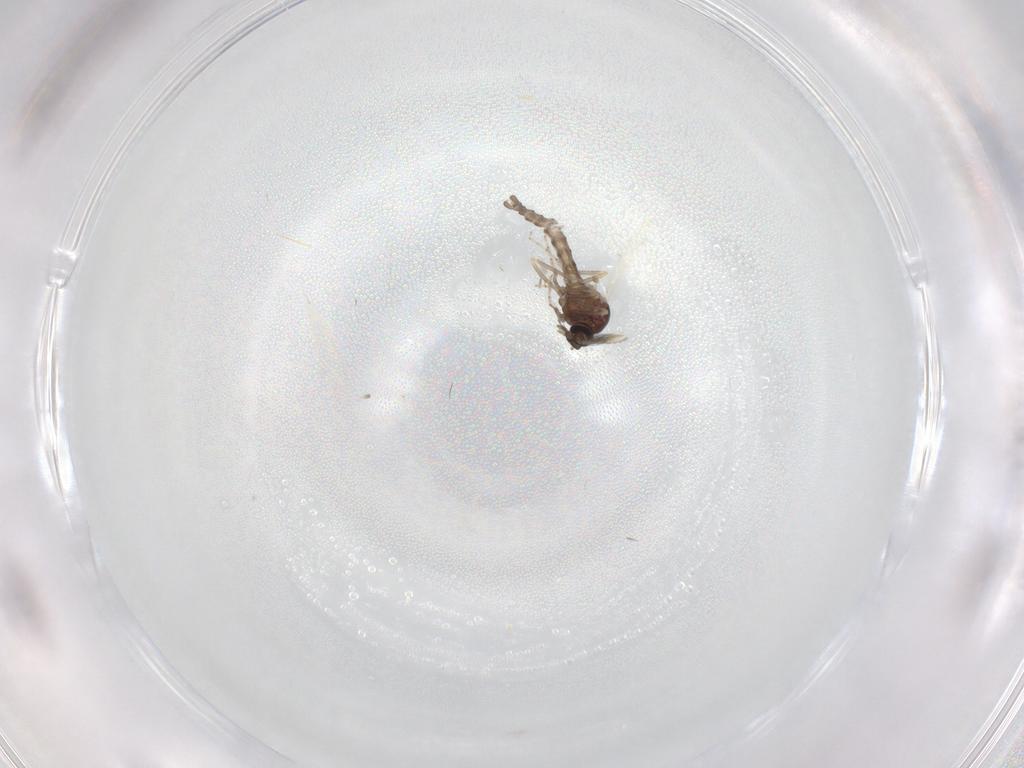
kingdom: Animalia
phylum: Arthropoda
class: Insecta
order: Diptera
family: Ceratopogonidae
